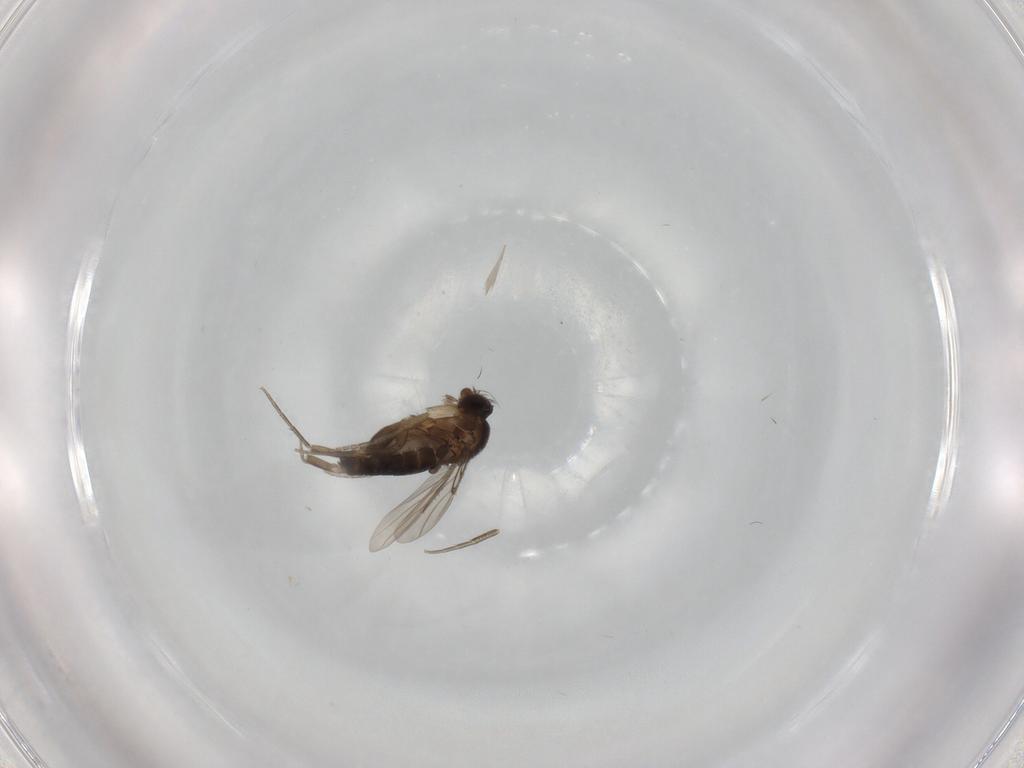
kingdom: Animalia
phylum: Arthropoda
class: Insecta
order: Diptera
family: Phoridae
